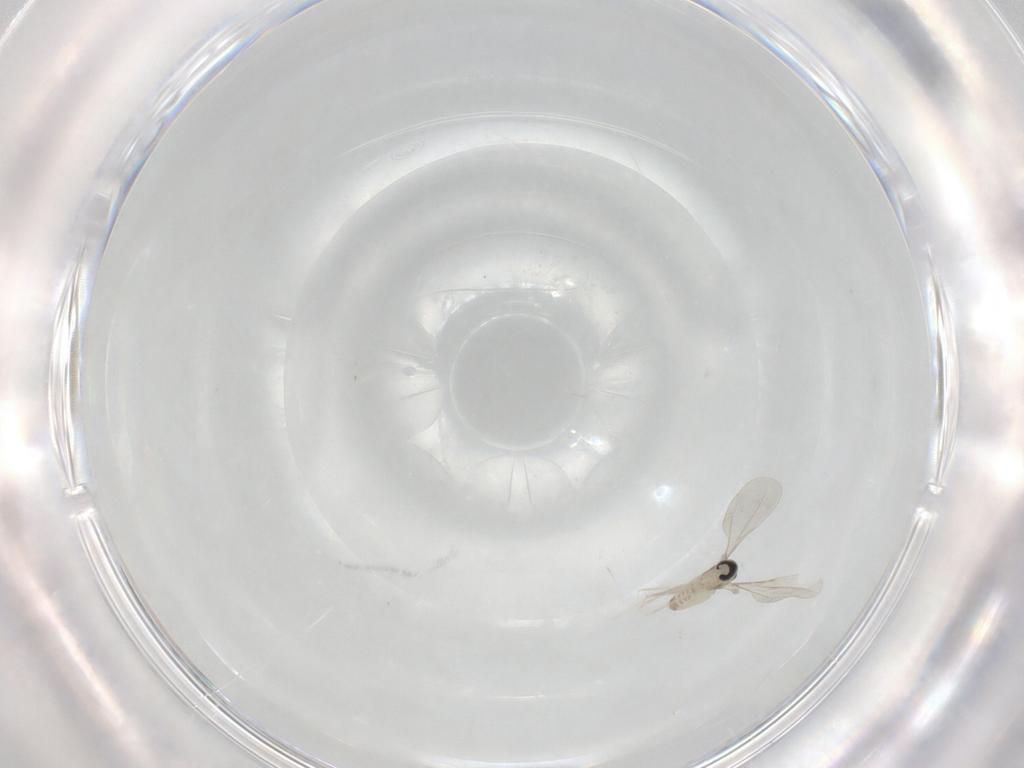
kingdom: Animalia
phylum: Arthropoda
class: Insecta
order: Diptera
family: Cecidomyiidae
